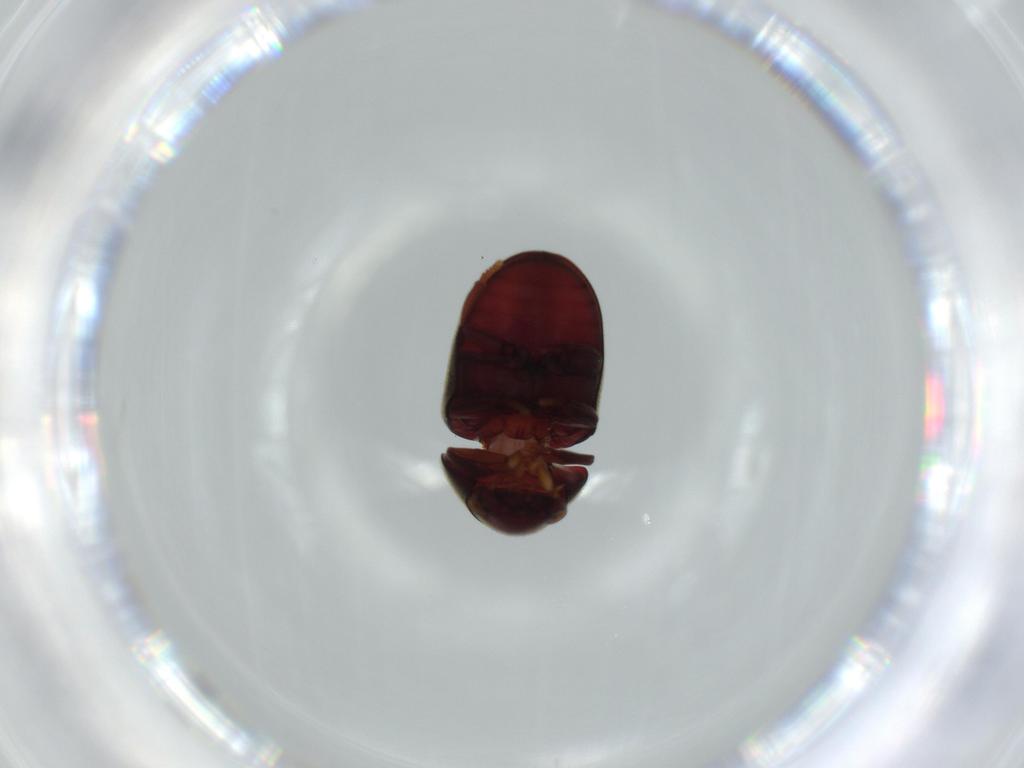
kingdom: Animalia
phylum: Arthropoda
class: Insecta
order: Coleoptera
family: Ptinidae
